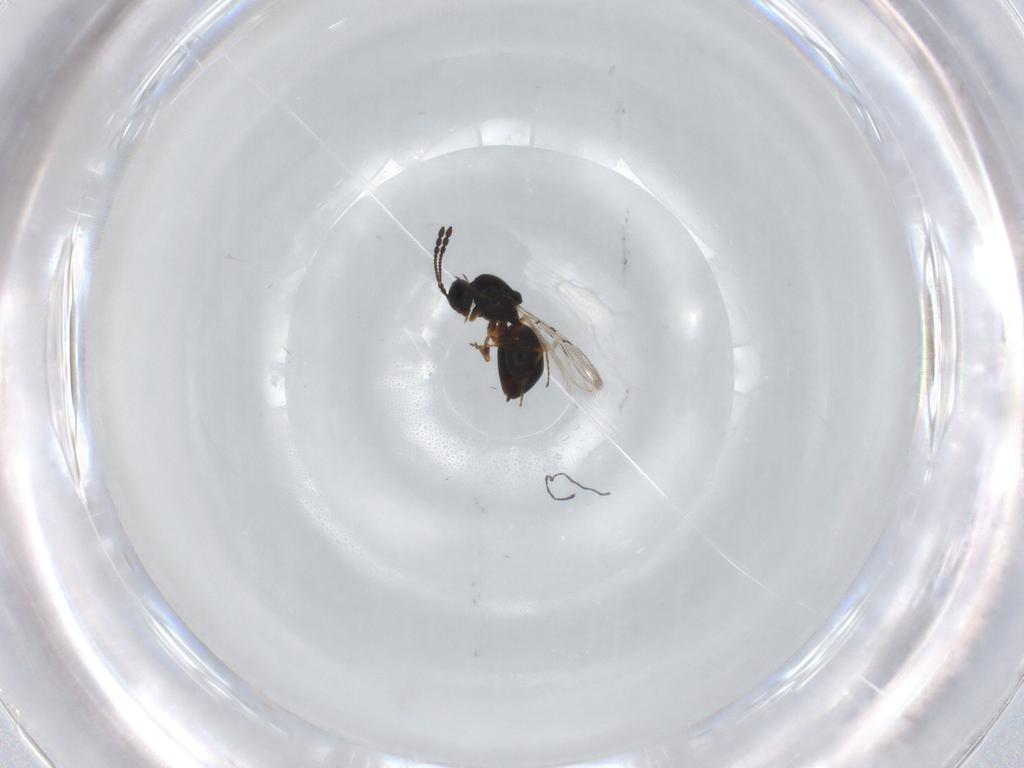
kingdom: Animalia
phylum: Arthropoda
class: Insecta
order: Hymenoptera
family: Figitidae
